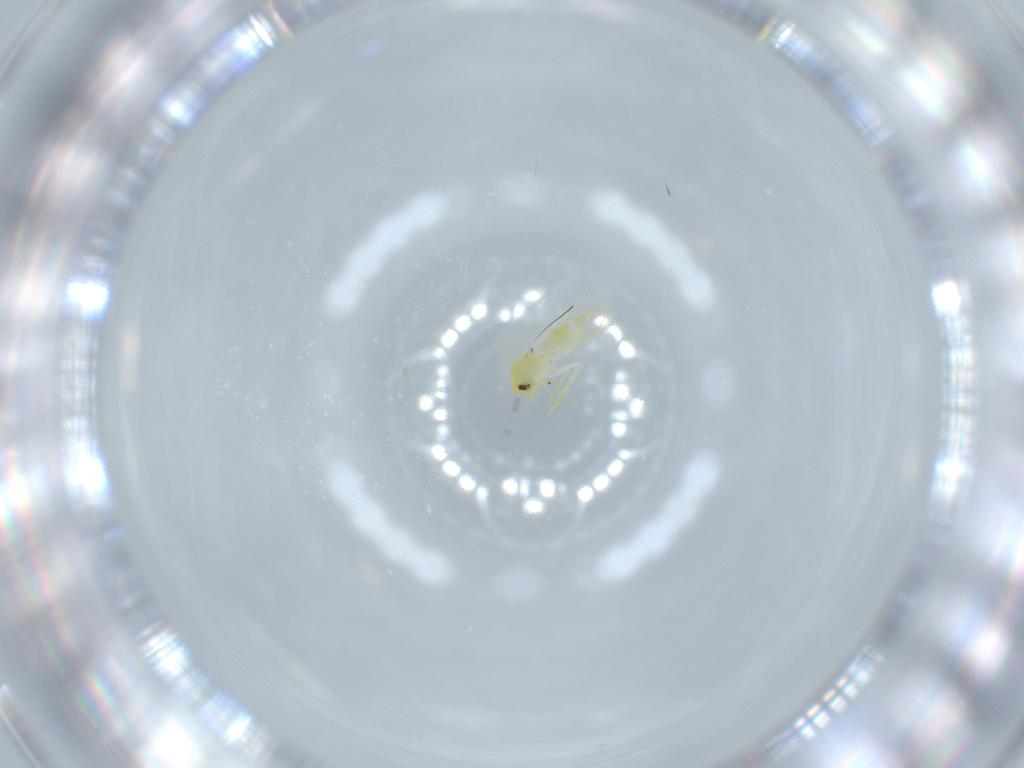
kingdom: Animalia
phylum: Arthropoda
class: Insecta
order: Hemiptera
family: Aleyrodidae
